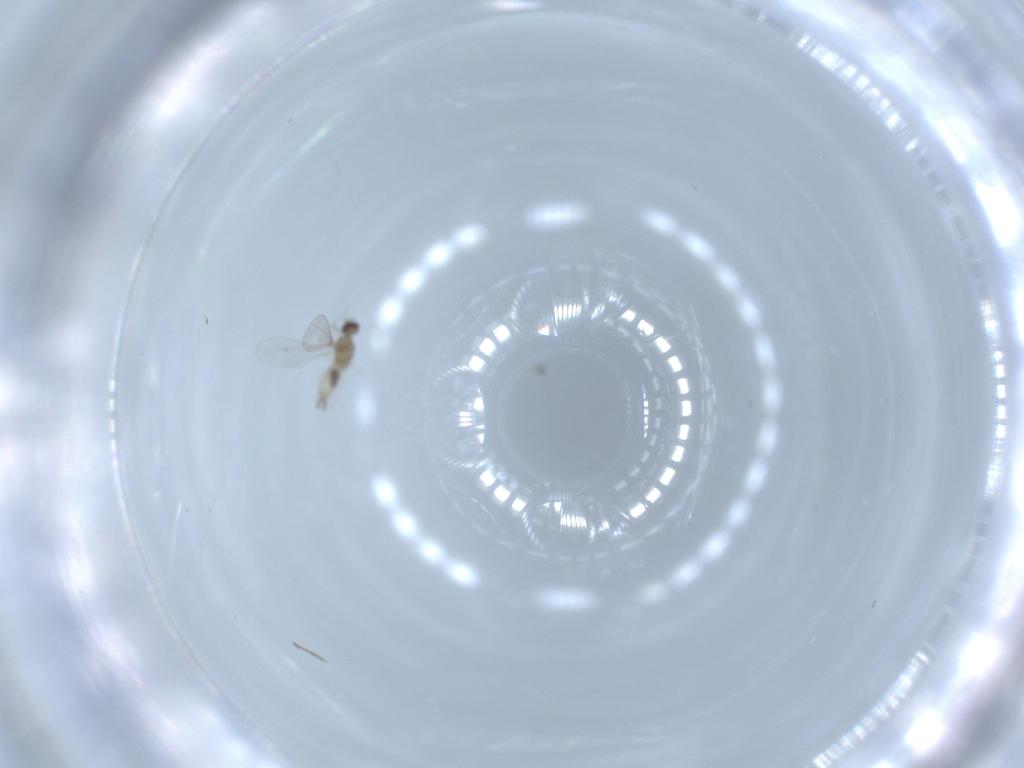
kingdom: Animalia
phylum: Arthropoda
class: Insecta
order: Diptera
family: Cecidomyiidae
